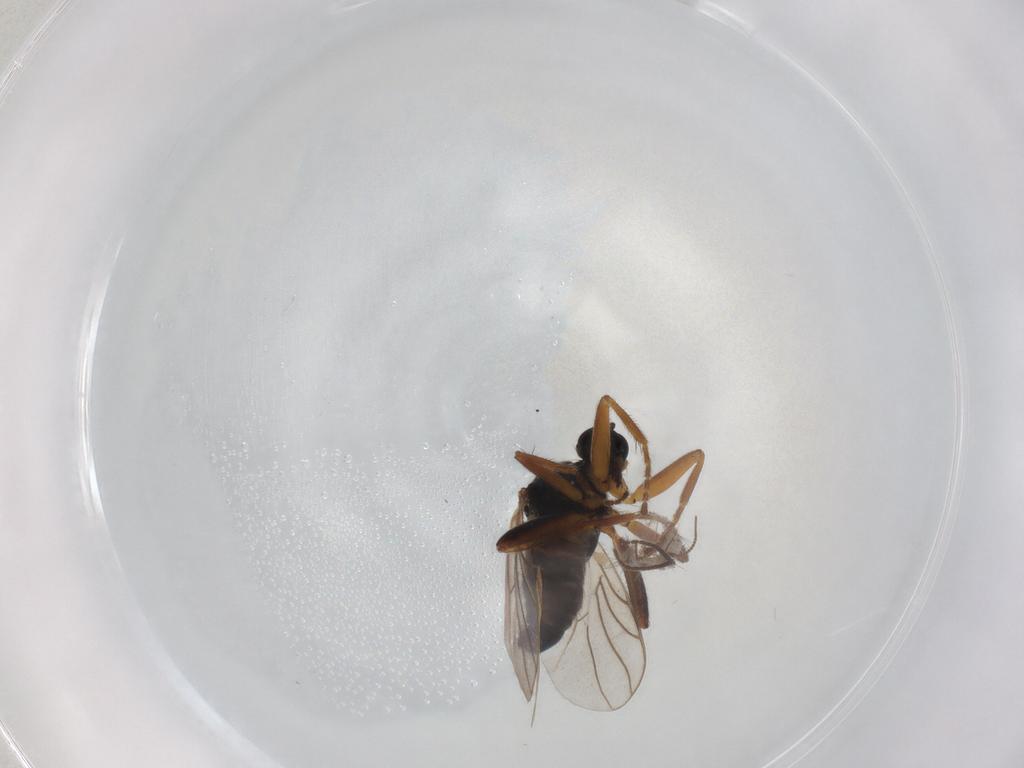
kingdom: Animalia
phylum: Arthropoda
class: Insecta
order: Diptera
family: Hybotidae
